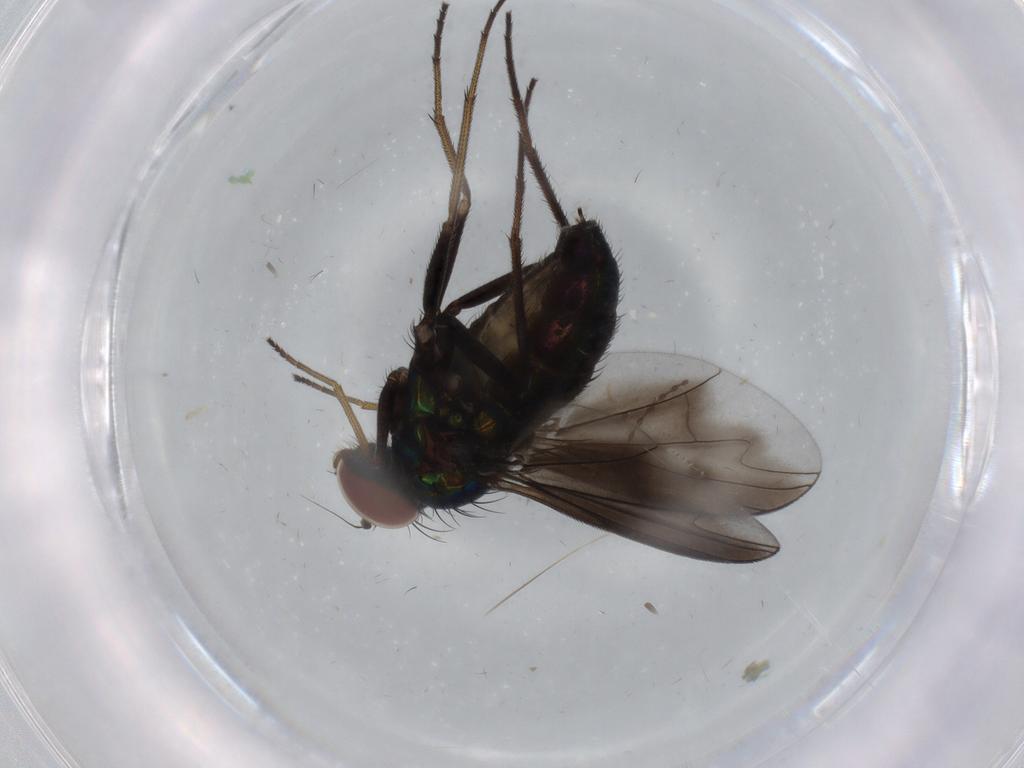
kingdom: Animalia
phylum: Arthropoda
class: Insecta
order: Diptera
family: Dolichopodidae
